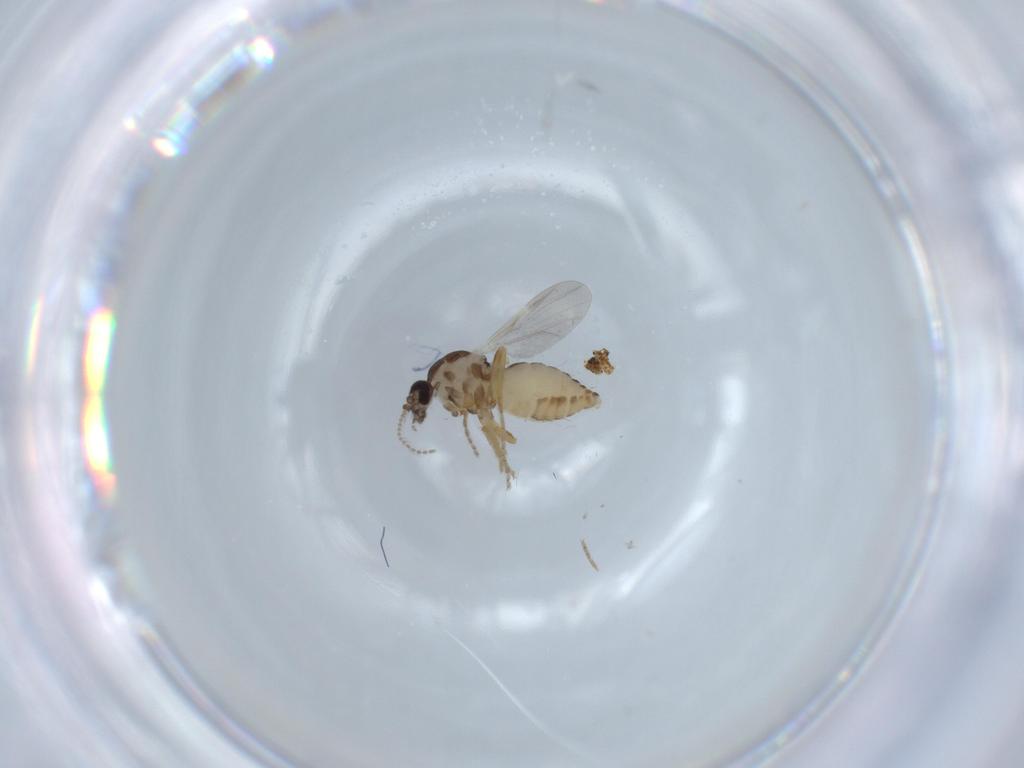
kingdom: Animalia
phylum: Arthropoda
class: Insecta
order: Diptera
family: Ceratopogonidae
